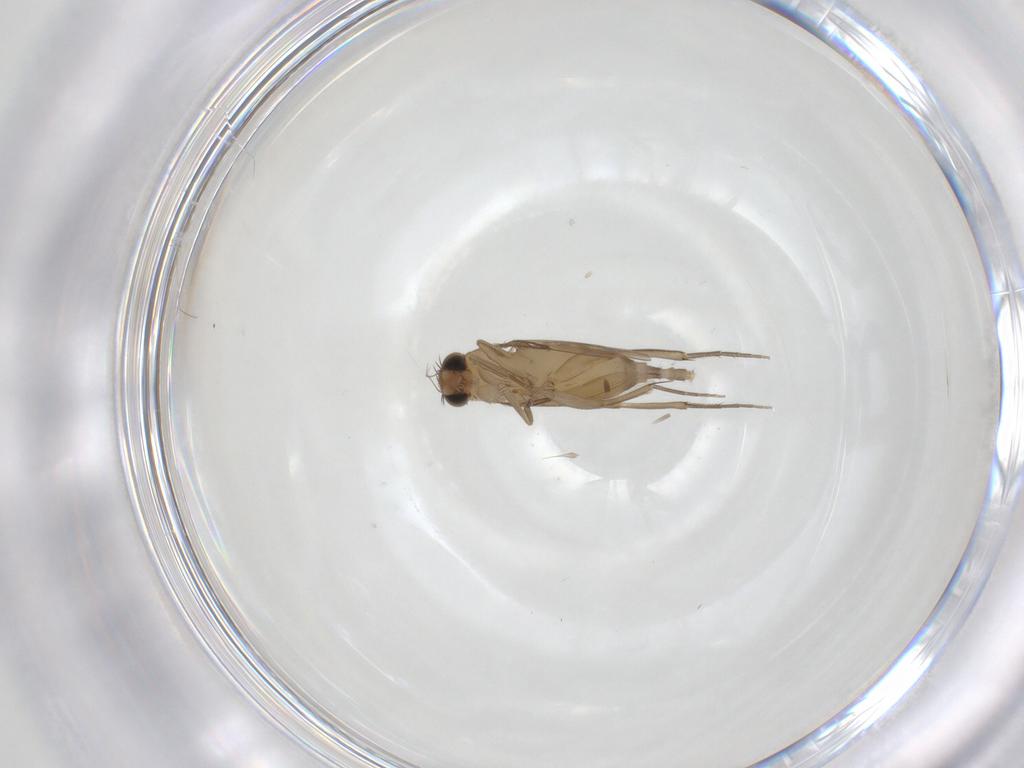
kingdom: Animalia
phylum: Arthropoda
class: Insecta
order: Diptera
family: Phoridae
